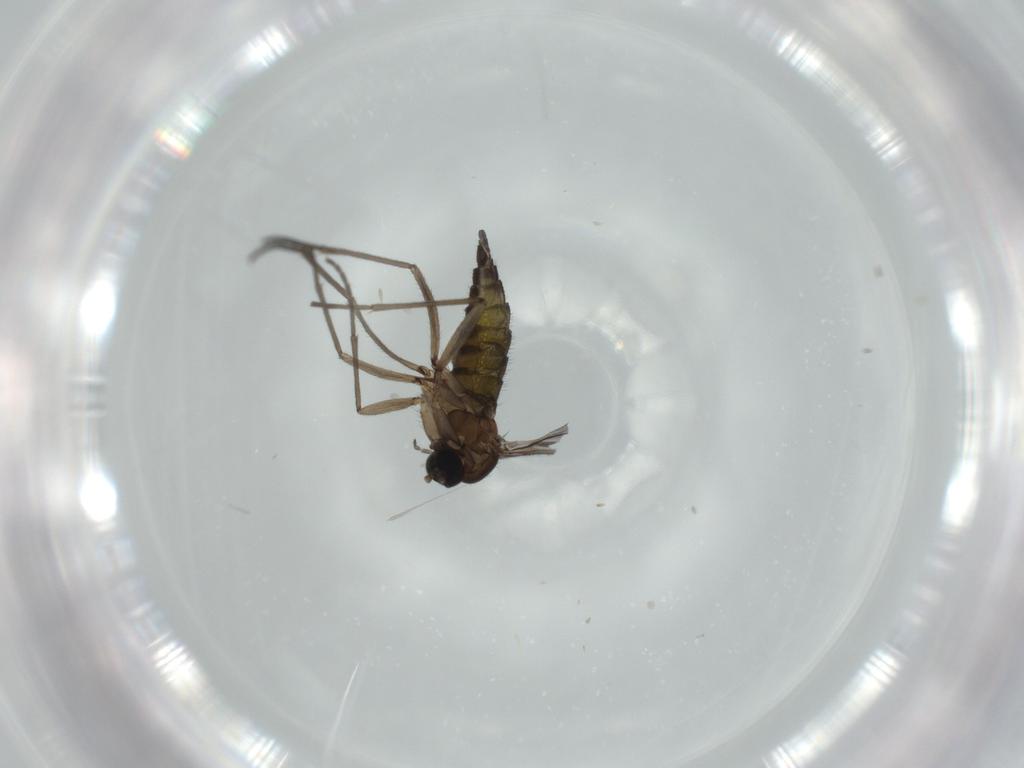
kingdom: Animalia
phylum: Arthropoda
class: Insecta
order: Diptera
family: Sciaridae
